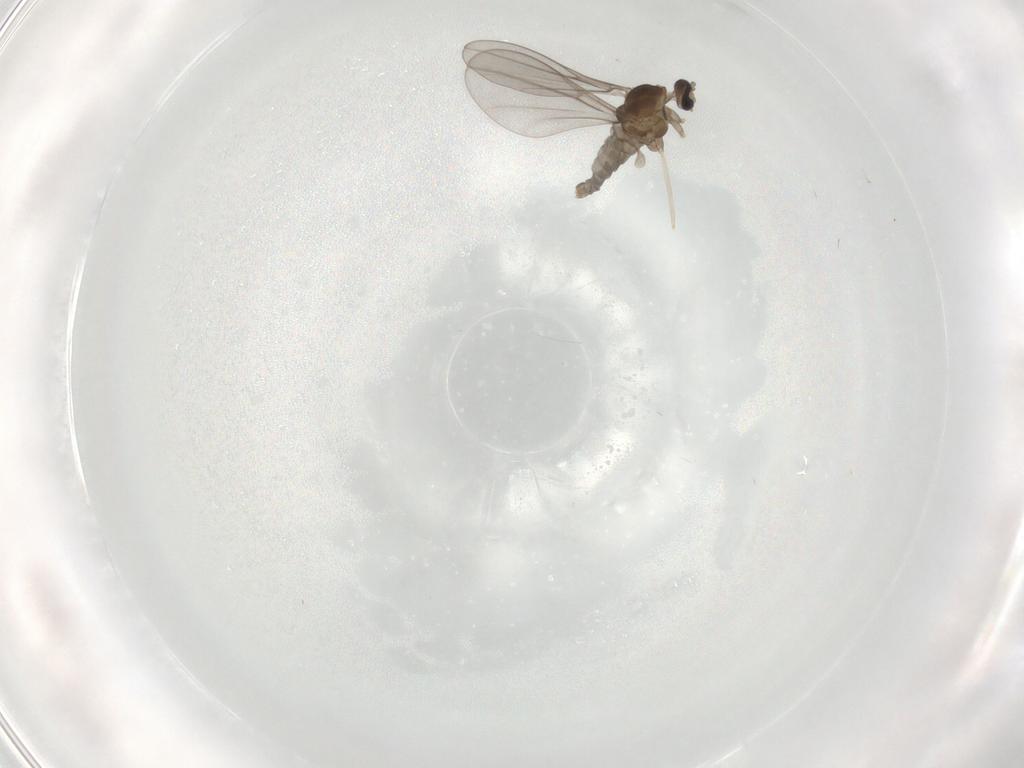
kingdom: Animalia
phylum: Arthropoda
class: Insecta
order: Diptera
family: Cecidomyiidae
